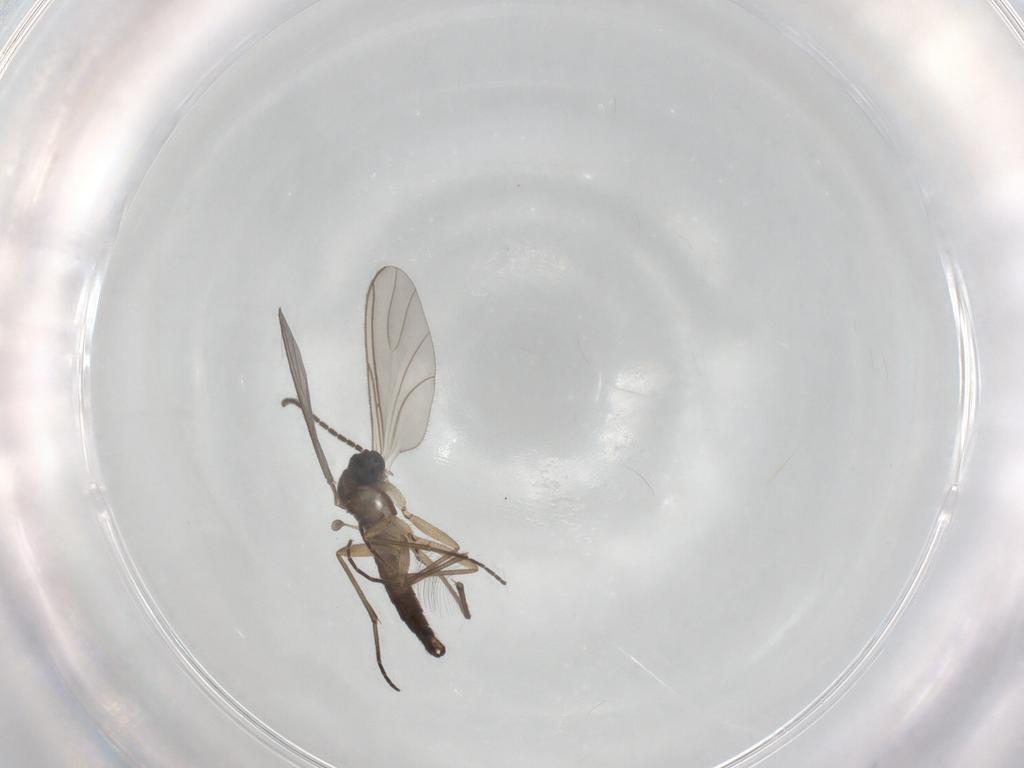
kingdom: Animalia
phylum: Arthropoda
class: Insecta
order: Diptera
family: Sciaridae
